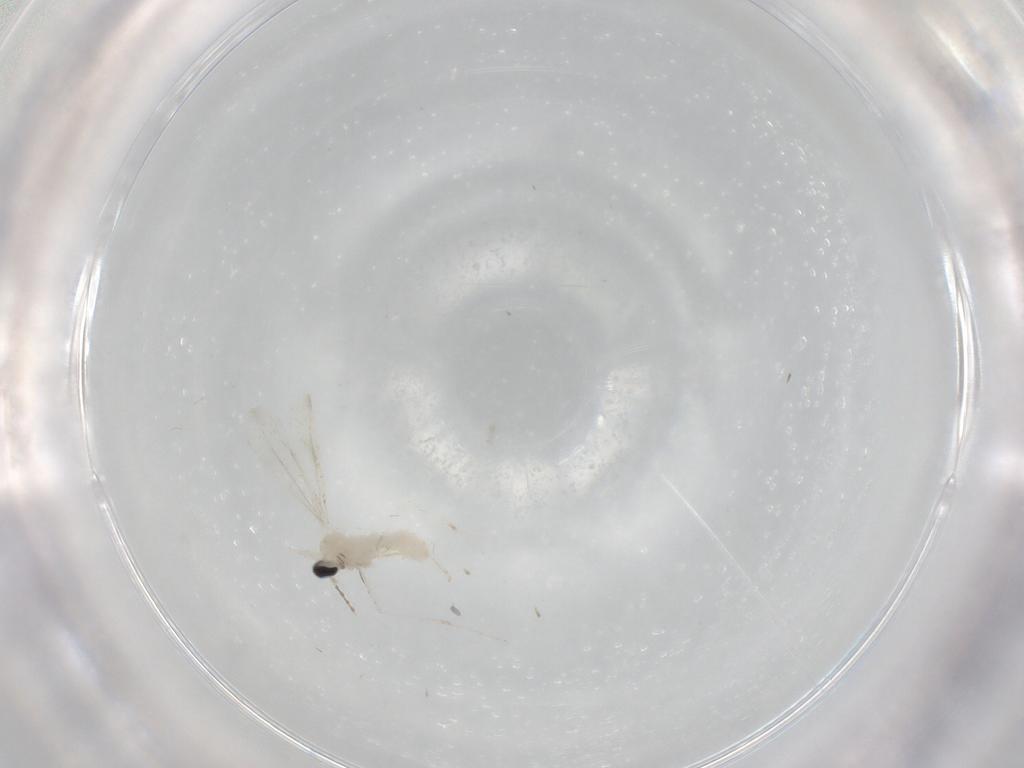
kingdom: Animalia
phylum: Arthropoda
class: Insecta
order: Diptera
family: Cecidomyiidae
